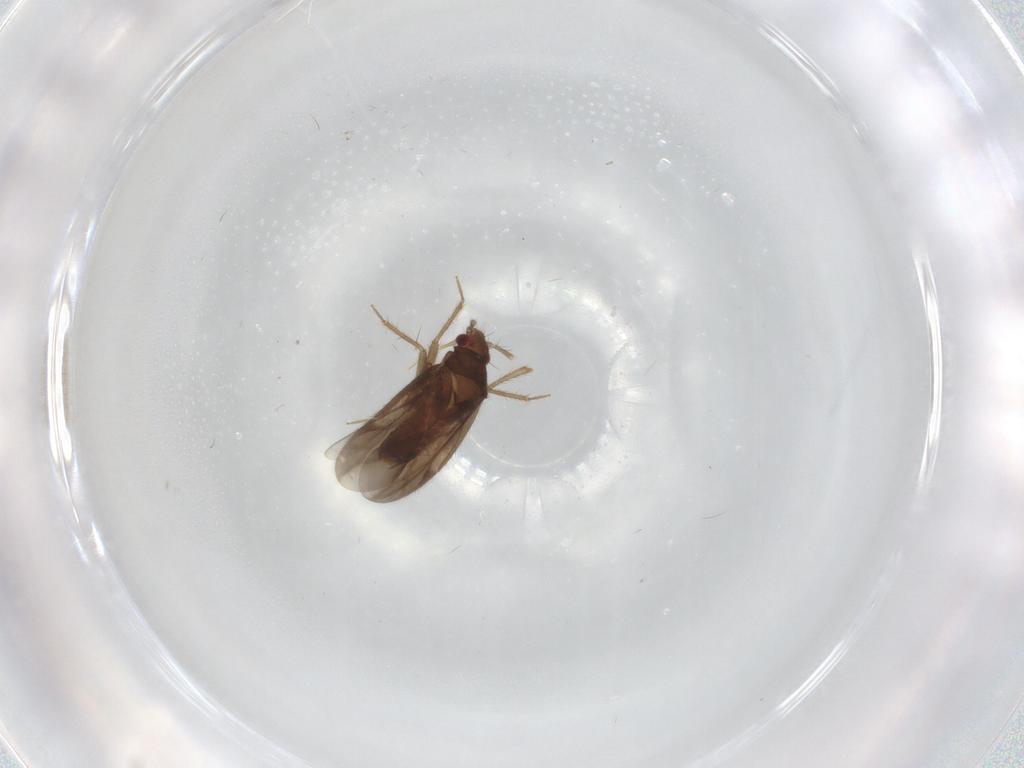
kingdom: Animalia
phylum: Arthropoda
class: Insecta
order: Hemiptera
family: Ceratocombidae
